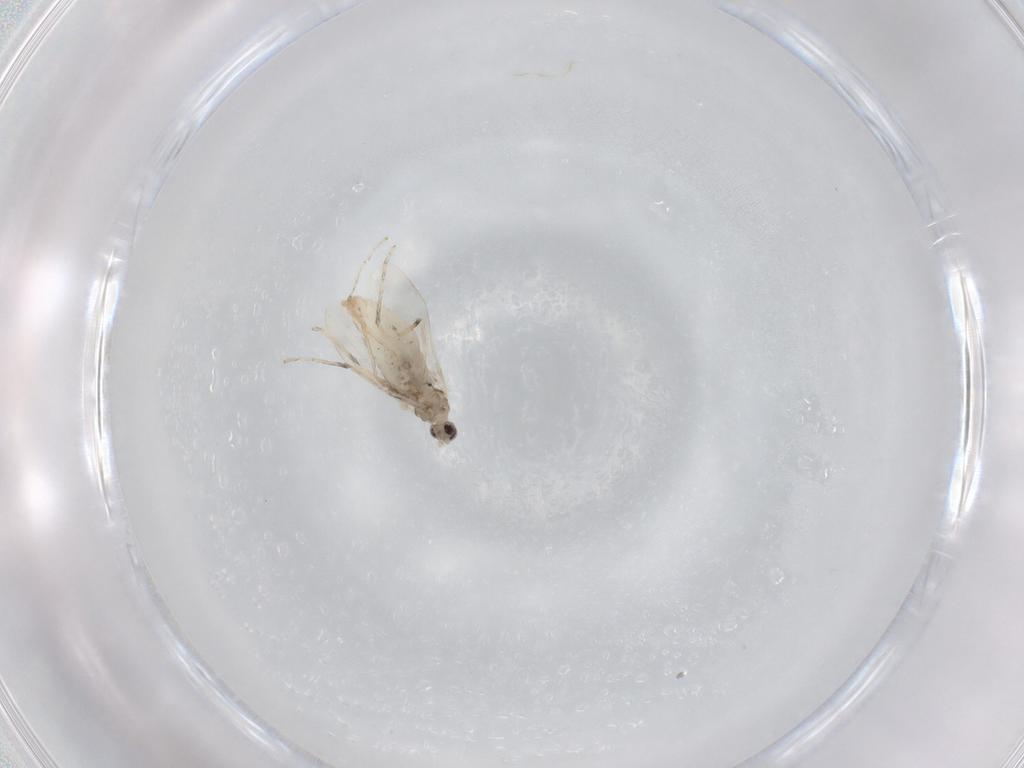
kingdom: Animalia
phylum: Arthropoda
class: Insecta
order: Diptera
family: Cecidomyiidae
